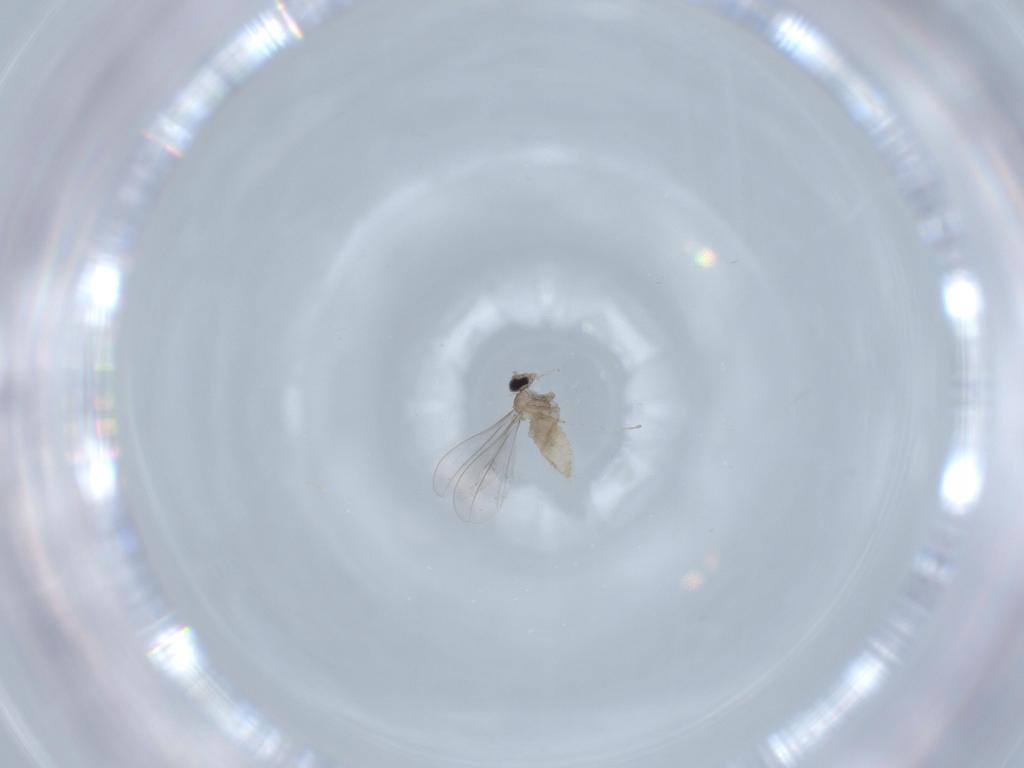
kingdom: Animalia
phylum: Arthropoda
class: Insecta
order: Diptera
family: Cecidomyiidae
